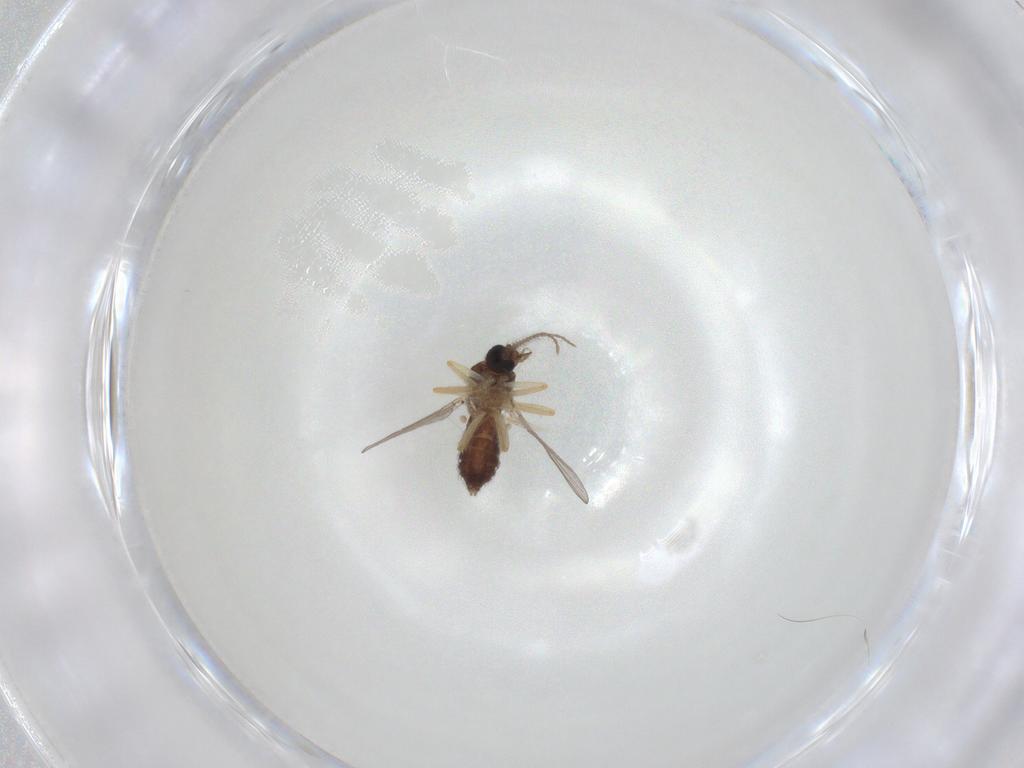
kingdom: Animalia
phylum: Arthropoda
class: Insecta
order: Diptera
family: Ceratopogonidae
